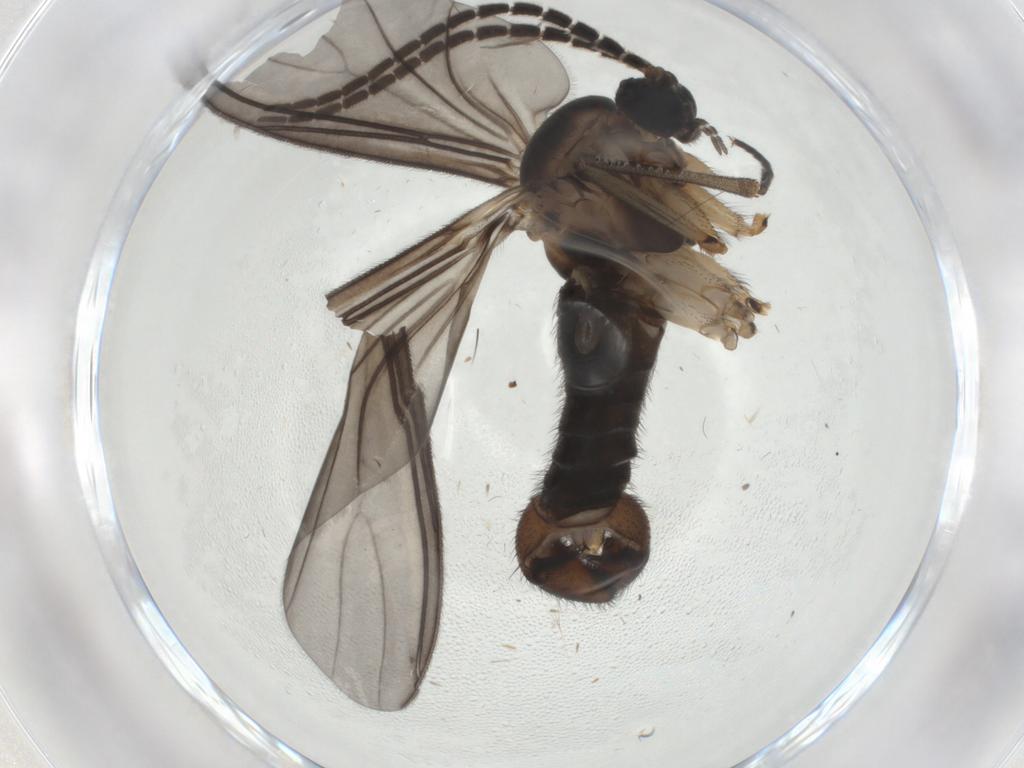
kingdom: Animalia
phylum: Arthropoda
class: Insecta
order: Diptera
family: Sciaridae
